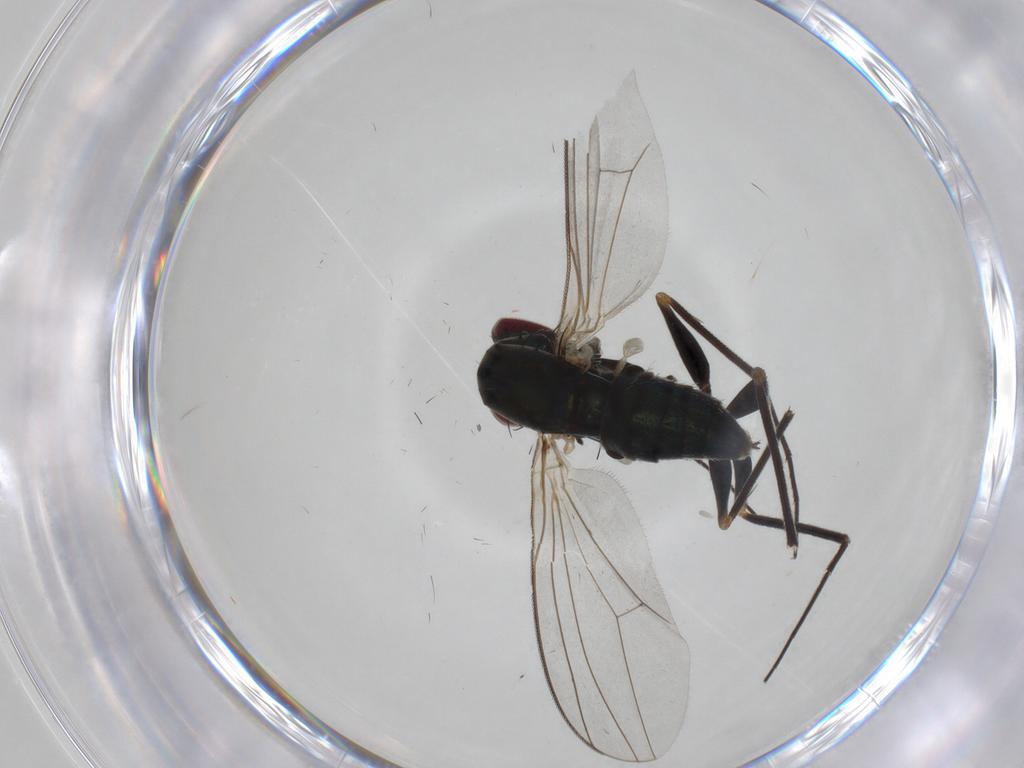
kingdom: Animalia
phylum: Arthropoda
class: Insecta
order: Diptera
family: Dolichopodidae
